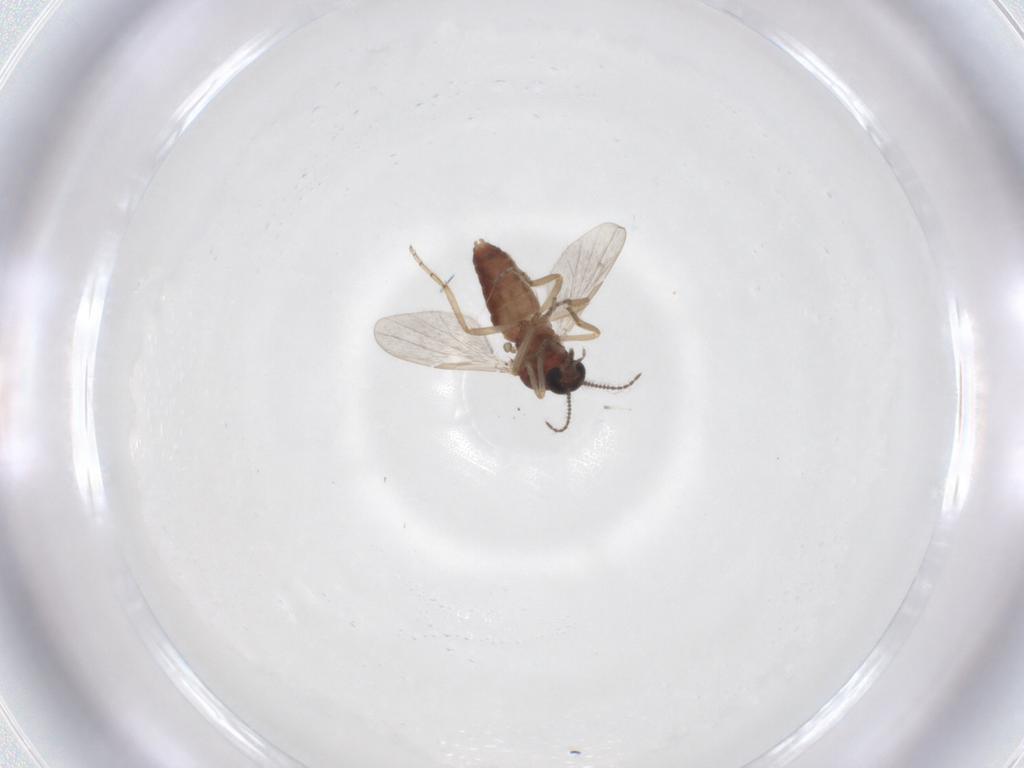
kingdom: Animalia
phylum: Arthropoda
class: Insecta
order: Diptera
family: Ceratopogonidae
